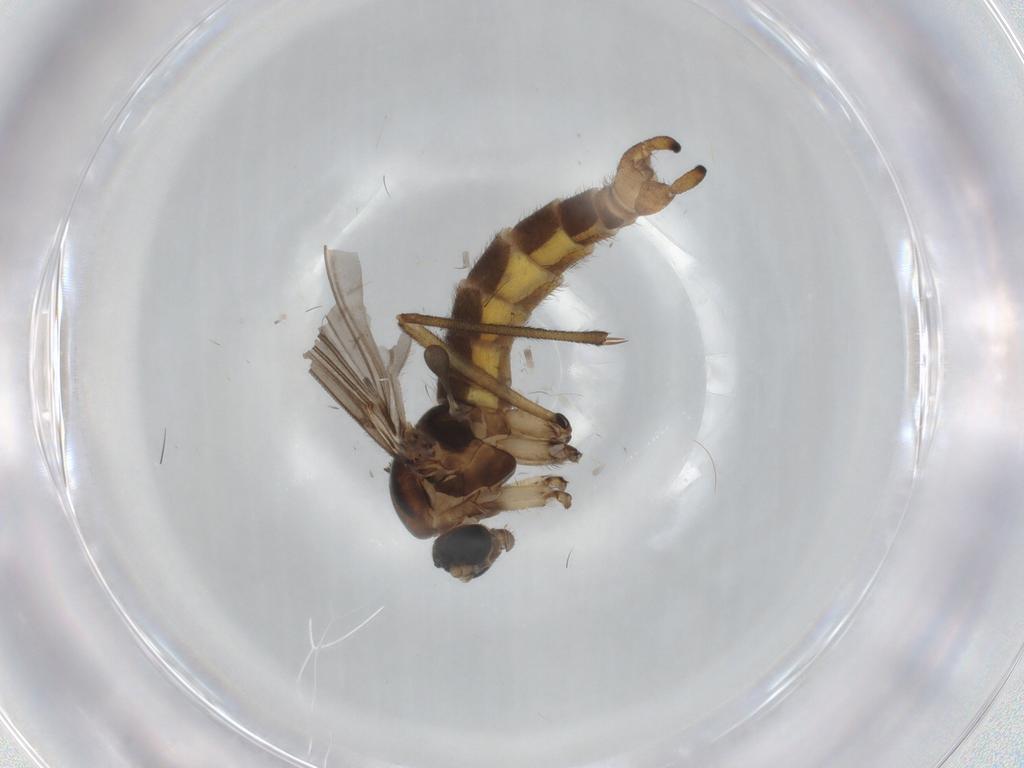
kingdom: Animalia
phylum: Arthropoda
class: Insecta
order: Diptera
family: Sciaridae
